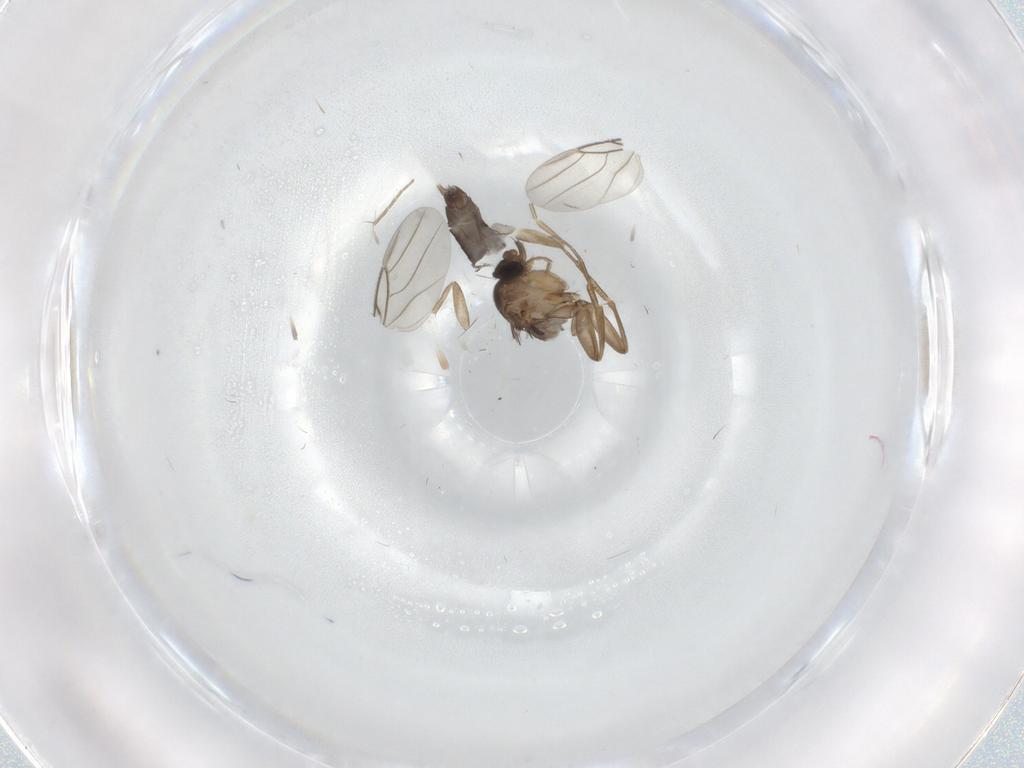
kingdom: Animalia
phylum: Arthropoda
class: Insecta
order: Diptera
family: Phoridae
